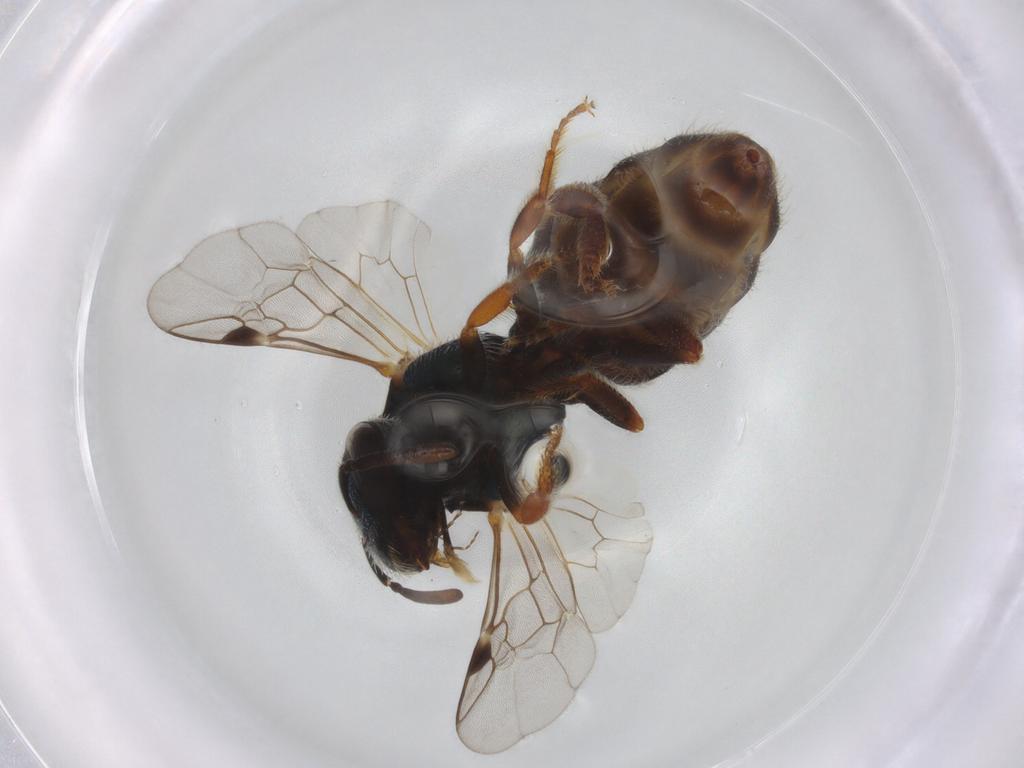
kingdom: Animalia
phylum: Arthropoda
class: Insecta
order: Hymenoptera
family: Halictidae
